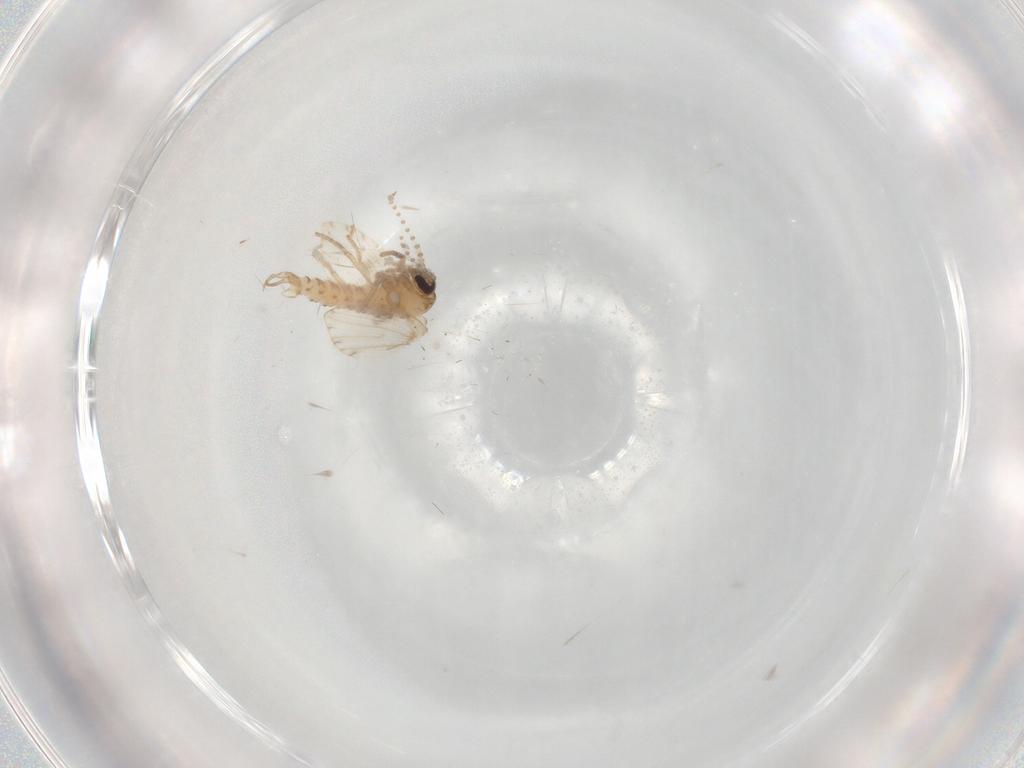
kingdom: Animalia
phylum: Arthropoda
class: Insecta
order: Diptera
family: Psychodidae
